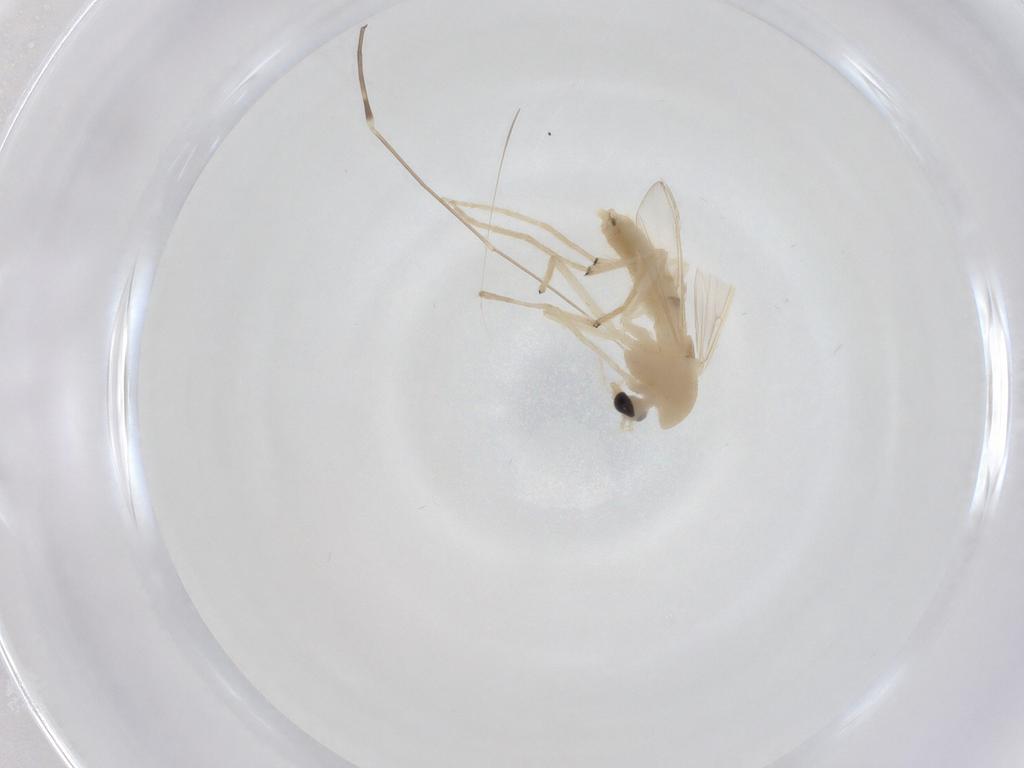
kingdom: Animalia
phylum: Arthropoda
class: Insecta
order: Diptera
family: Chironomidae
